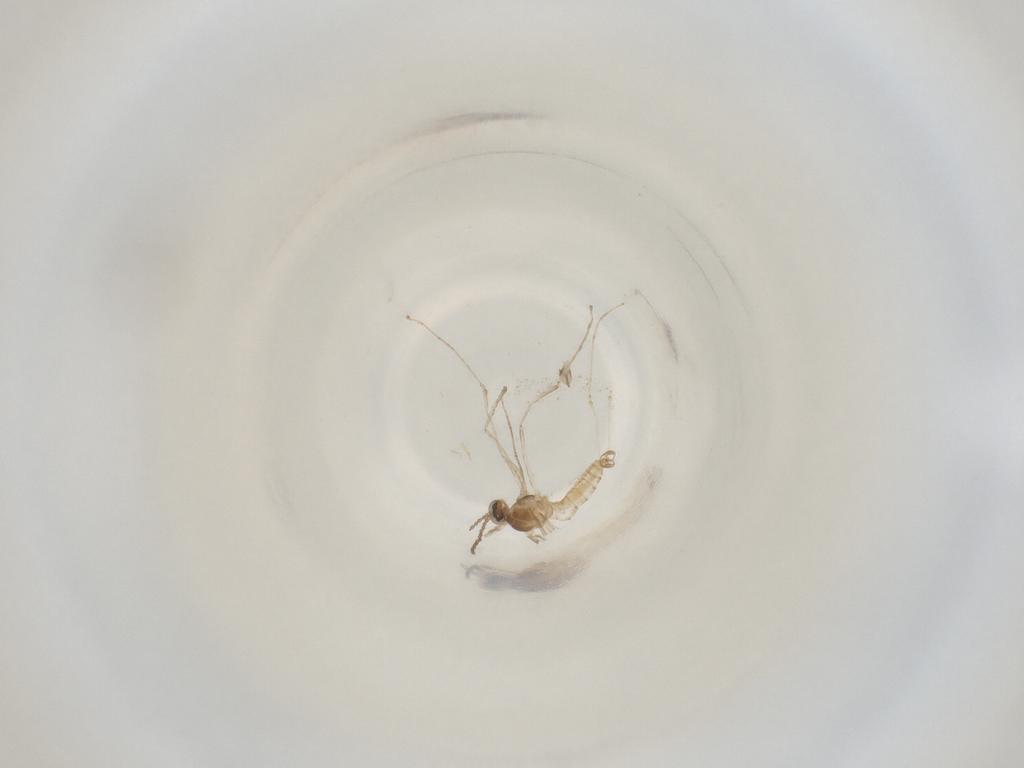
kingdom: Animalia
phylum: Arthropoda
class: Insecta
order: Diptera
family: Cecidomyiidae
